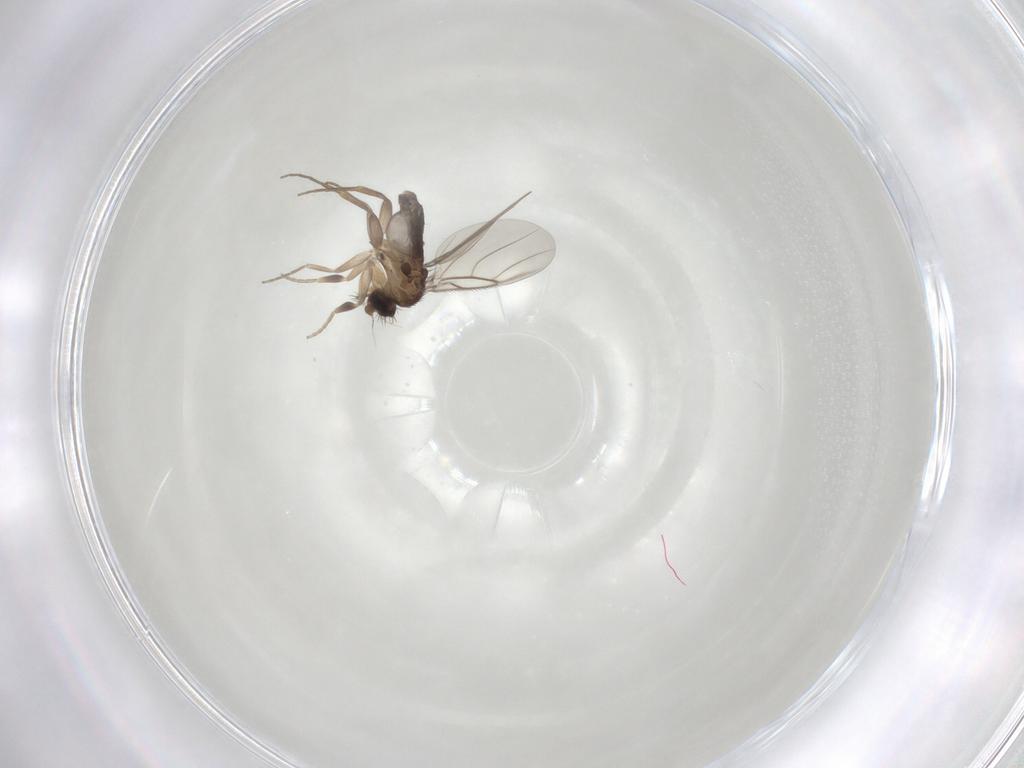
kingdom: Animalia
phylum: Arthropoda
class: Insecta
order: Diptera
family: Phoridae
